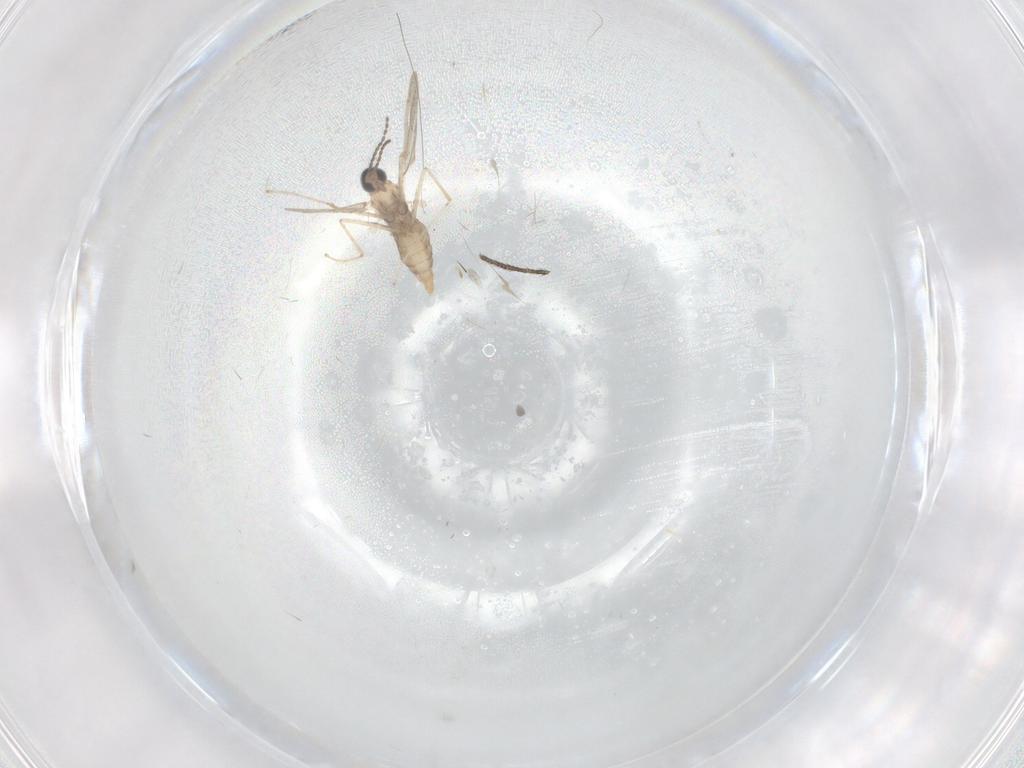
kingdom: Animalia
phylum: Arthropoda
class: Insecta
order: Diptera
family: Cecidomyiidae
